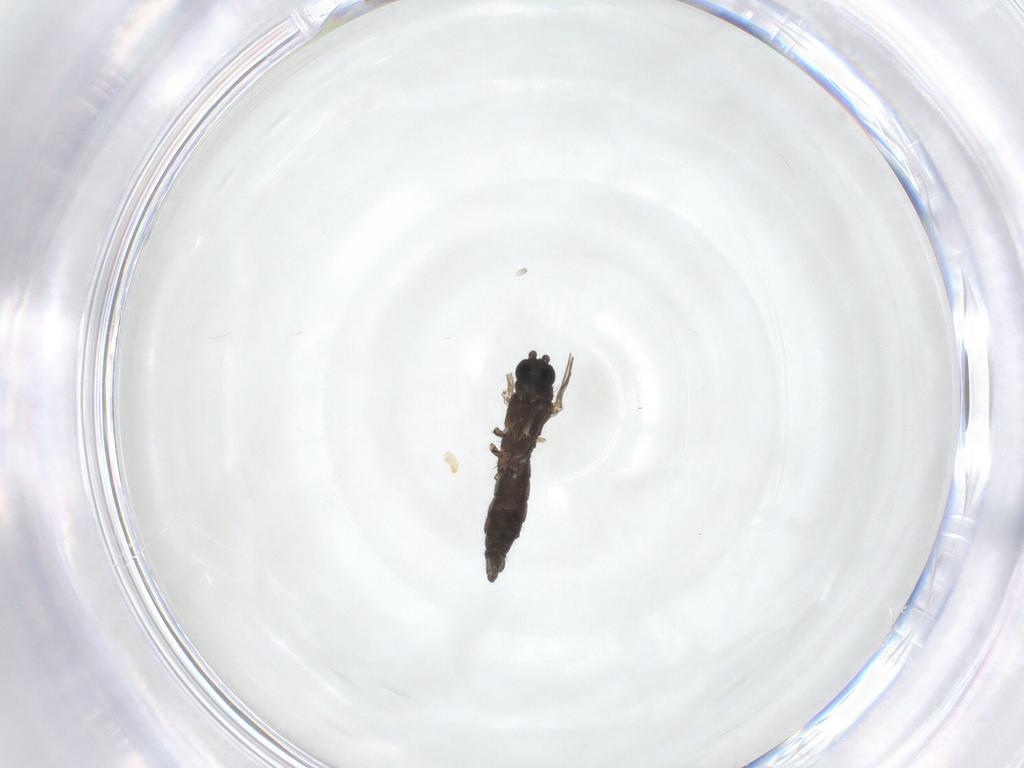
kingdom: Animalia
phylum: Arthropoda
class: Insecta
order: Diptera
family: Sciaridae
